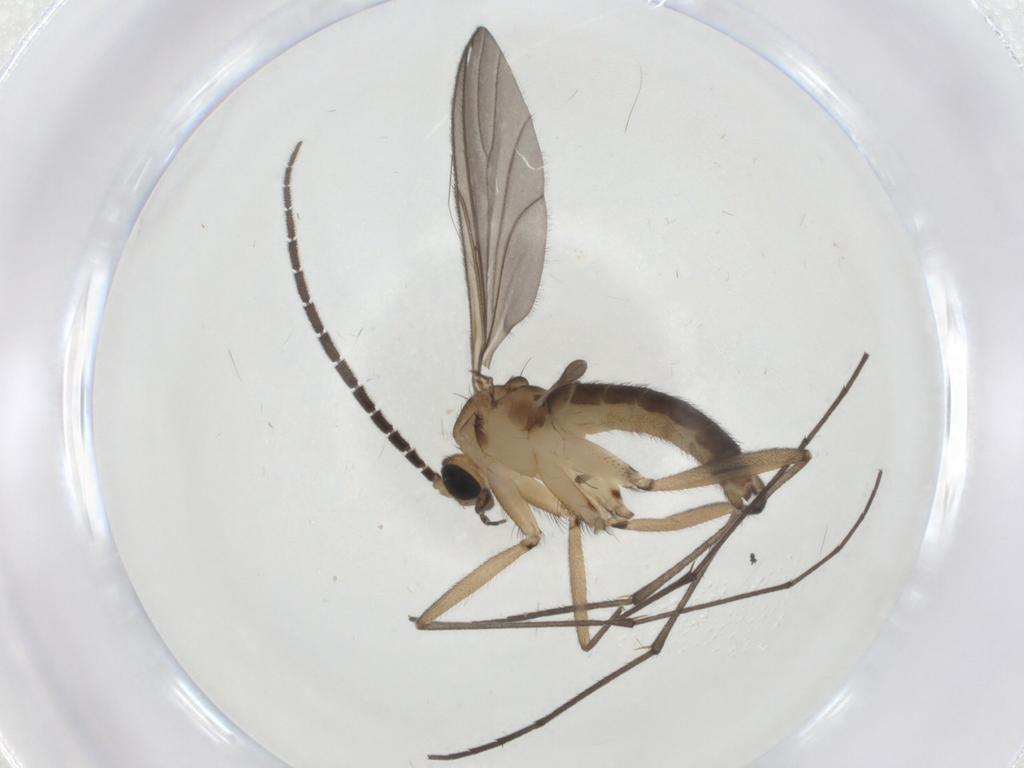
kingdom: Animalia
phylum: Arthropoda
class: Insecta
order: Diptera
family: Sciaridae
